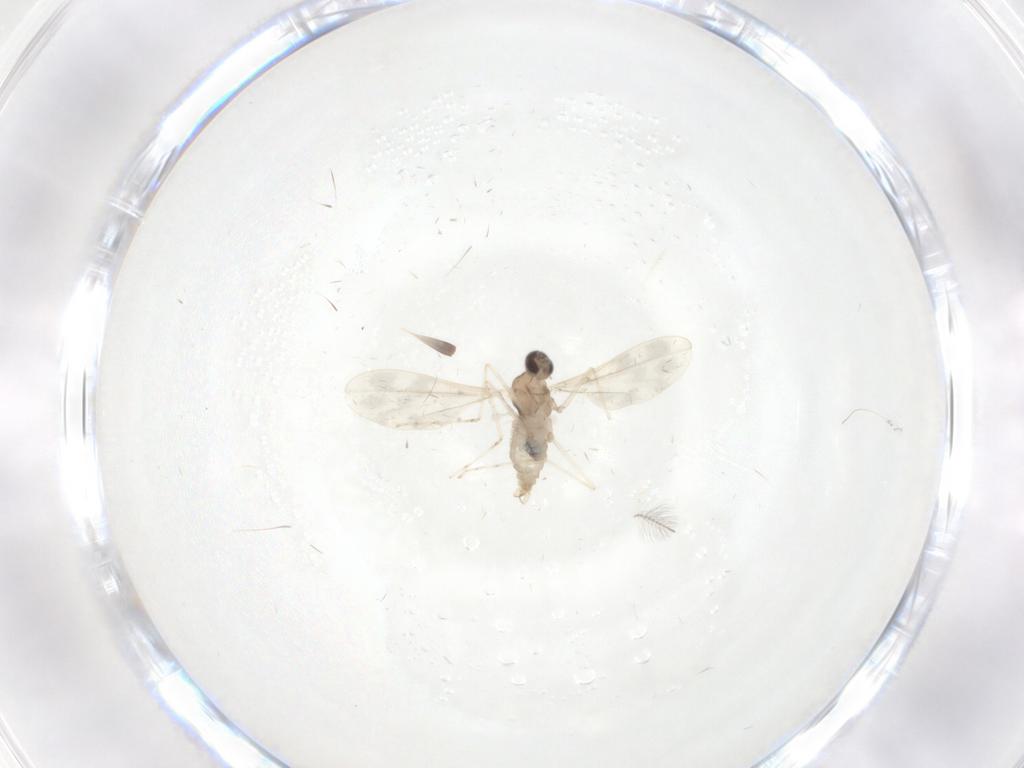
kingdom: Animalia
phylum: Arthropoda
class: Insecta
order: Diptera
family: Cecidomyiidae
